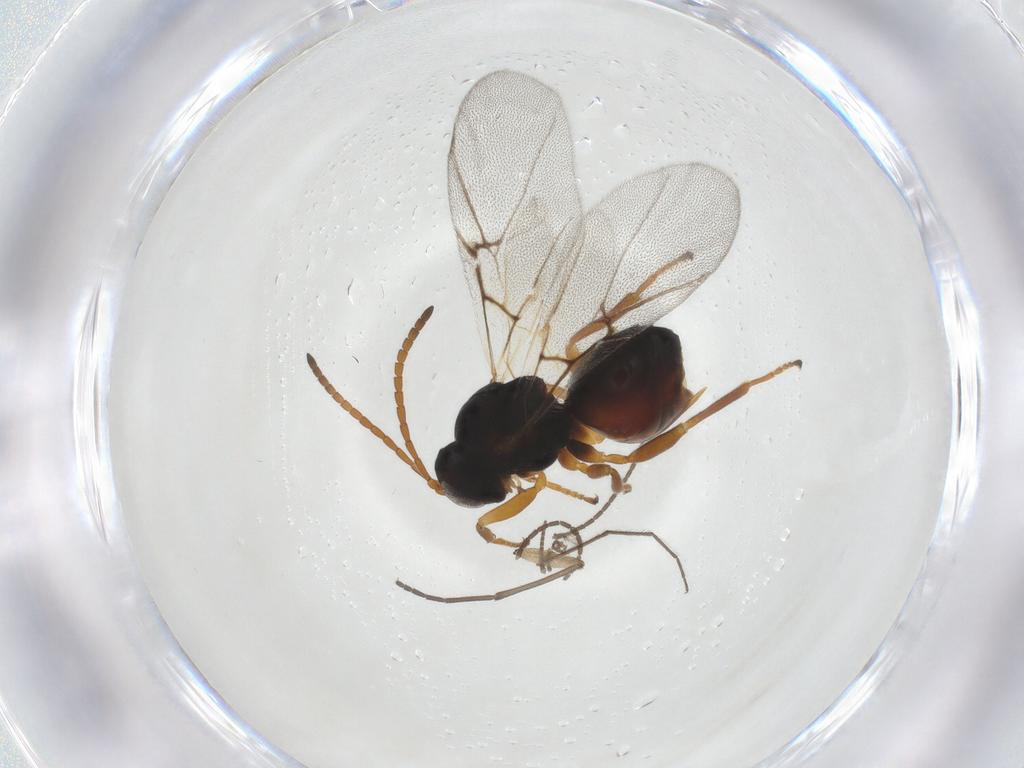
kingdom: Animalia
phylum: Arthropoda
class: Insecta
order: Hymenoptera
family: Cynipidae
